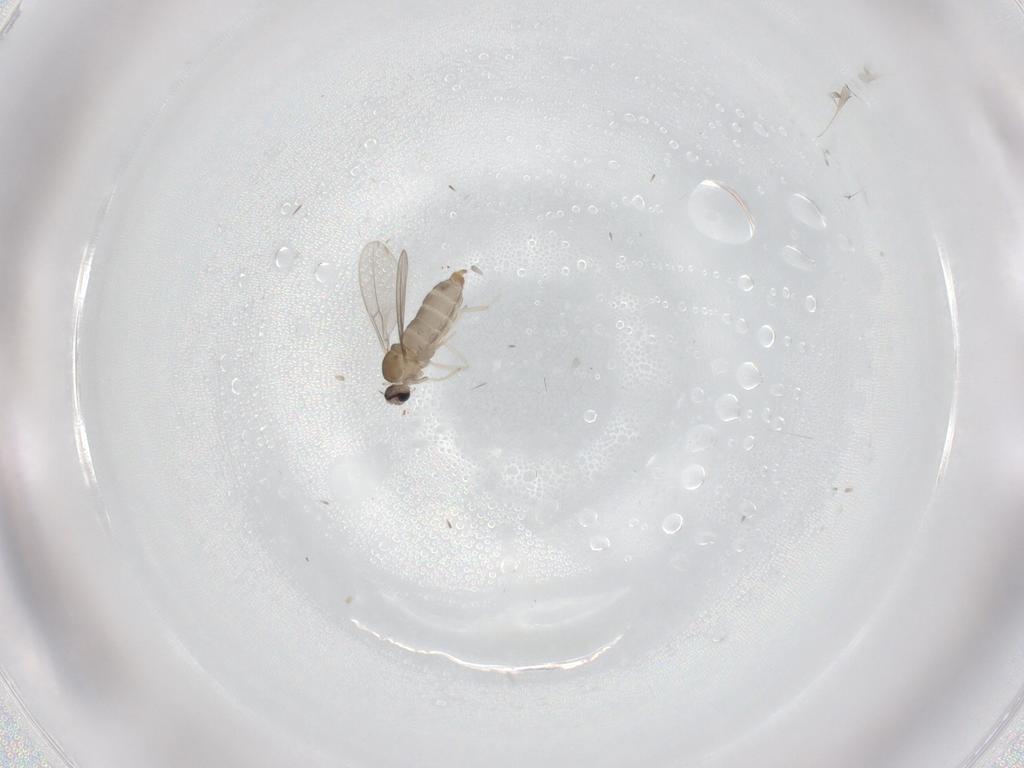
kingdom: Animalia
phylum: Arthropoda
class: Insecta
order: Diptera
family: Cecidomyiidae
